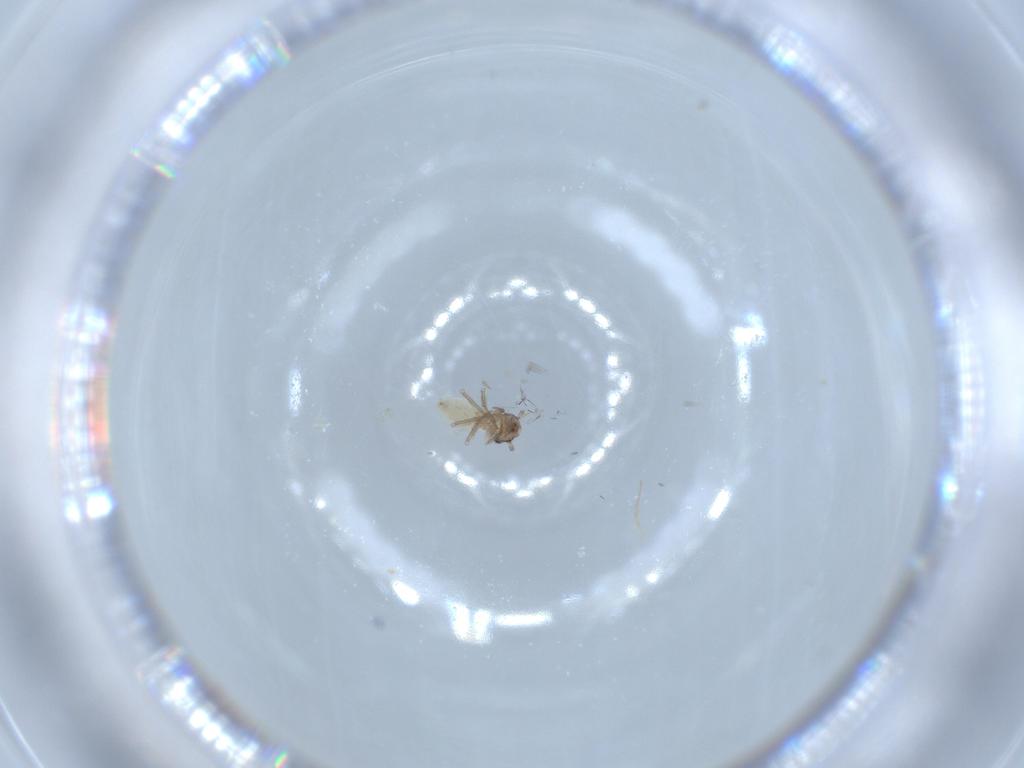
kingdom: Animalia
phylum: Arthropoda
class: Insecta
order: Psocodea
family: Lepidopsocidae
